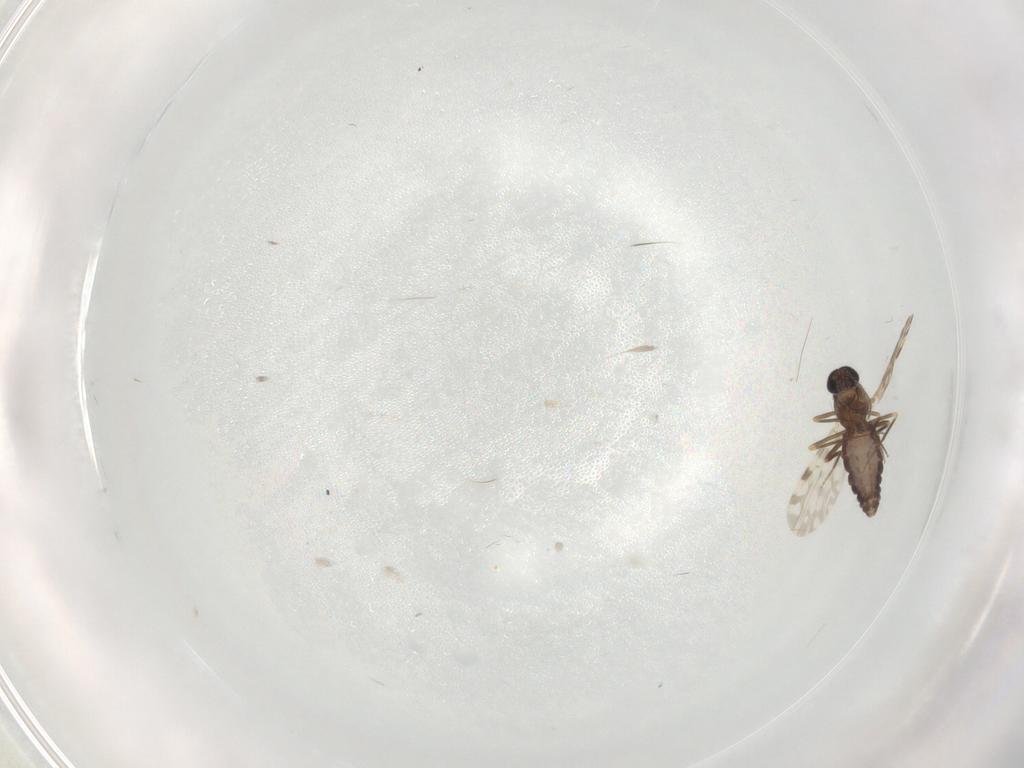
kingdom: Animalia
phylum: Arthropoda
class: Insecta
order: Diptera
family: Ceratopogonidae
